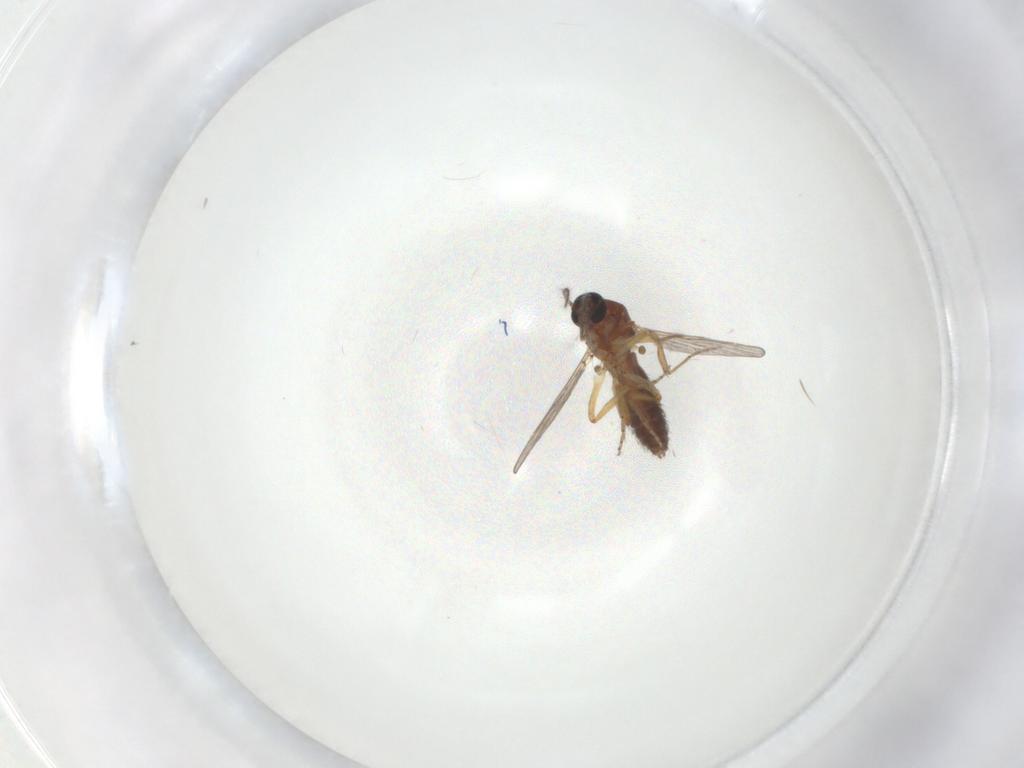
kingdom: Animalia
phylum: Arthropoda
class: Insecta
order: Diptera
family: Ceratopogonidae
